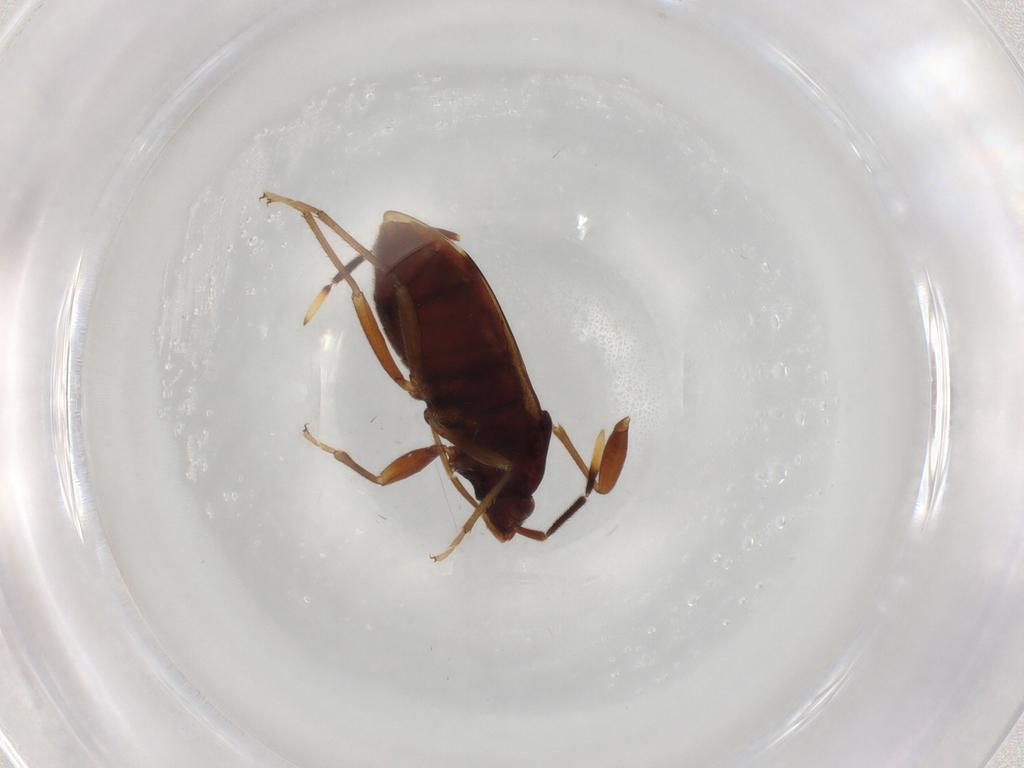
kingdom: Animalia
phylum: Arthropoda
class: Insecta
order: Hemiptera
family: Rhyparochromidae
